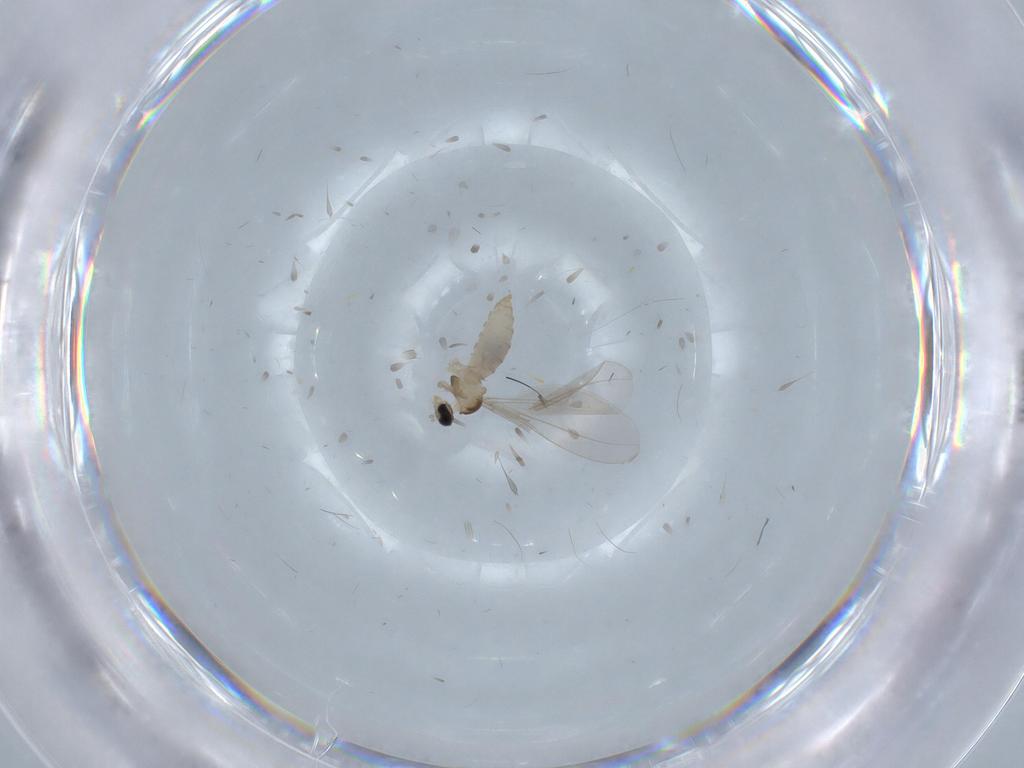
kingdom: Animalia
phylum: Arthropoda
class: Insecta
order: Diptera
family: Cecidomyiidae
